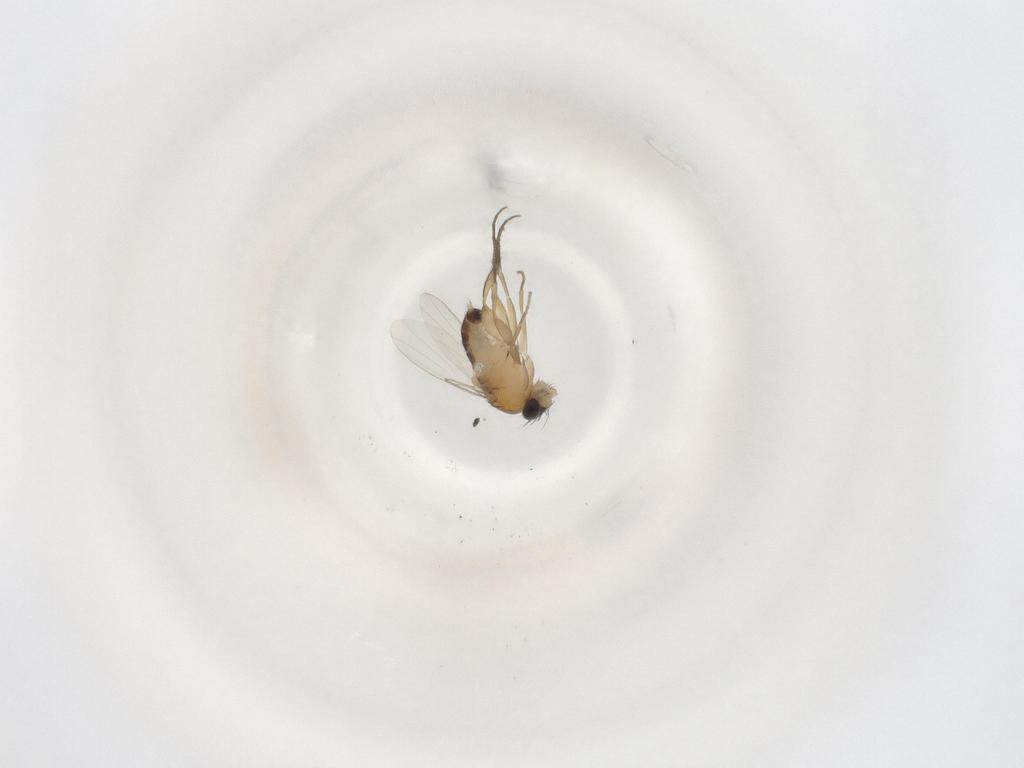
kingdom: Animalia
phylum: Arthropoda
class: Insecta
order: Diptera
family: Phoridae
